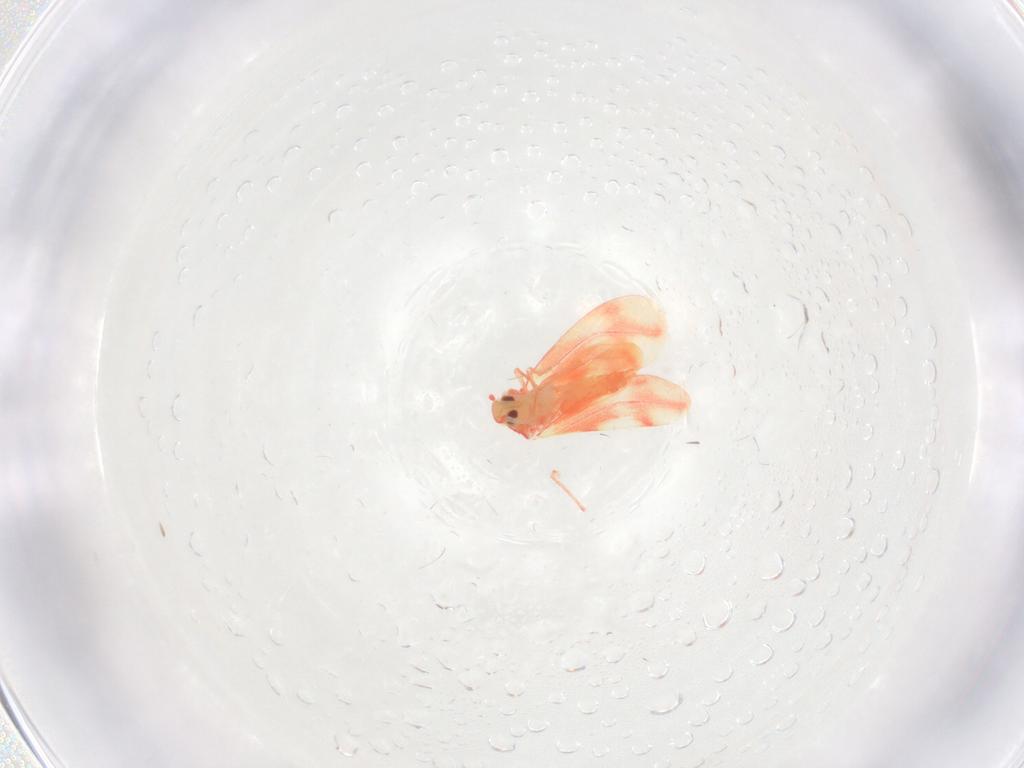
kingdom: Animalia
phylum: Arthropoda
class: Insecta
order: Hemiptera
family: Aleyrodidae
